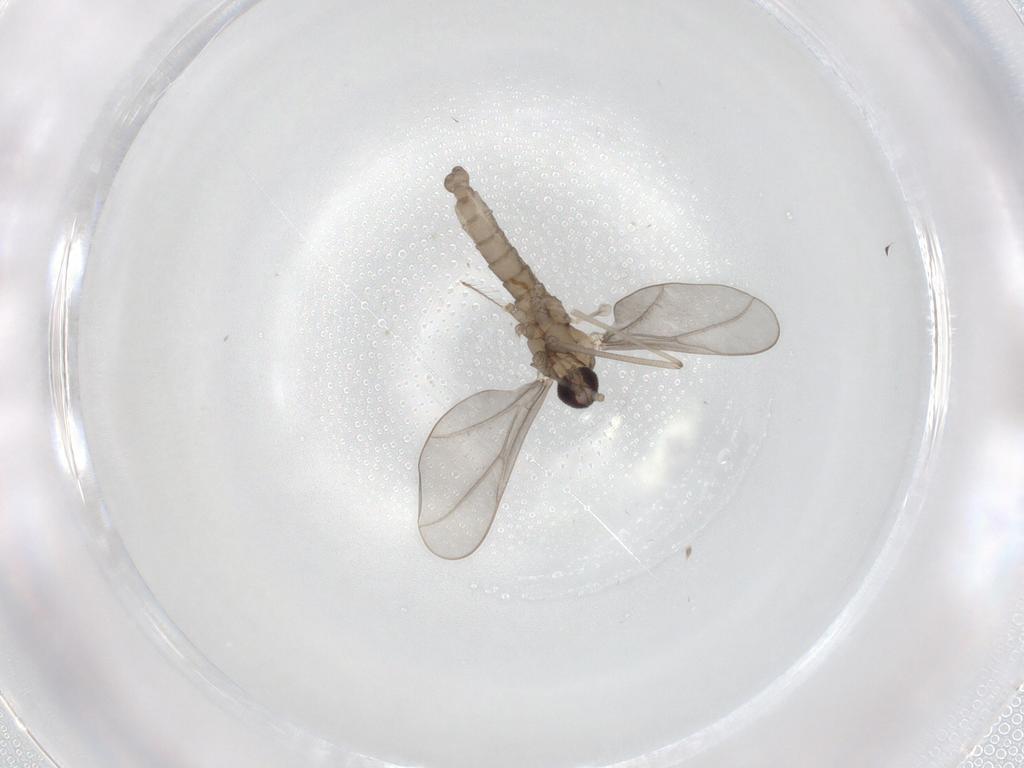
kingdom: Animalia
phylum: Arthropoda
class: Insecta
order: Diptera
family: Cecidomyiidae
